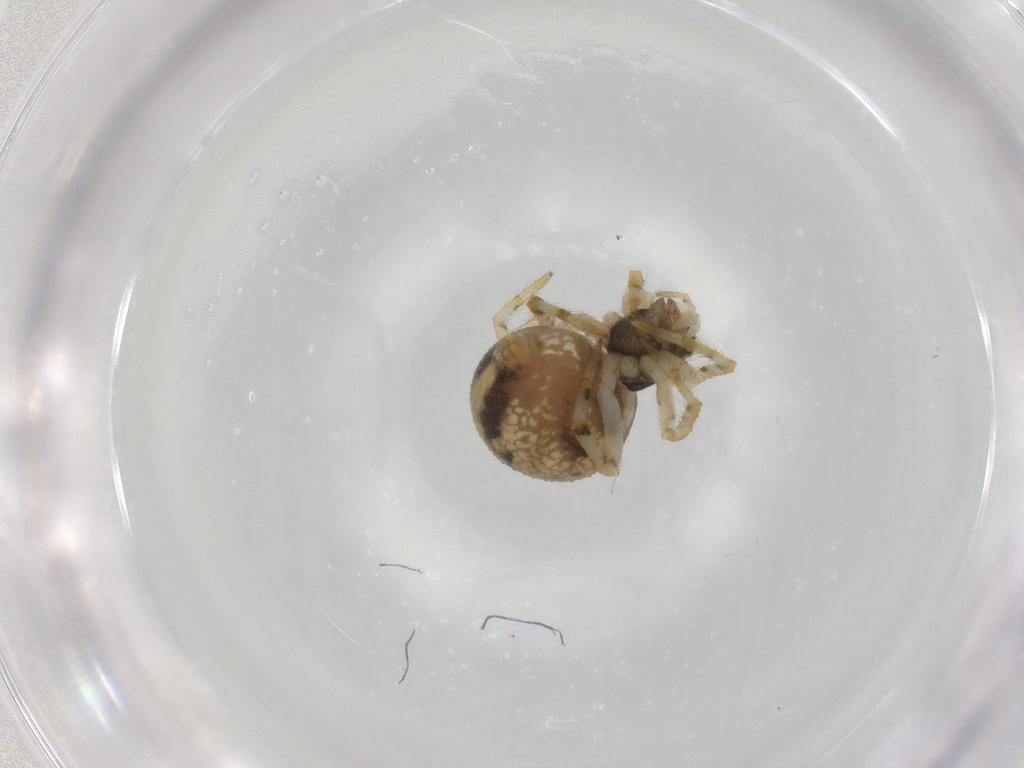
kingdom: Animalia
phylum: Arthropoda
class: Arachnida
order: Araneae
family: Theridiidae
